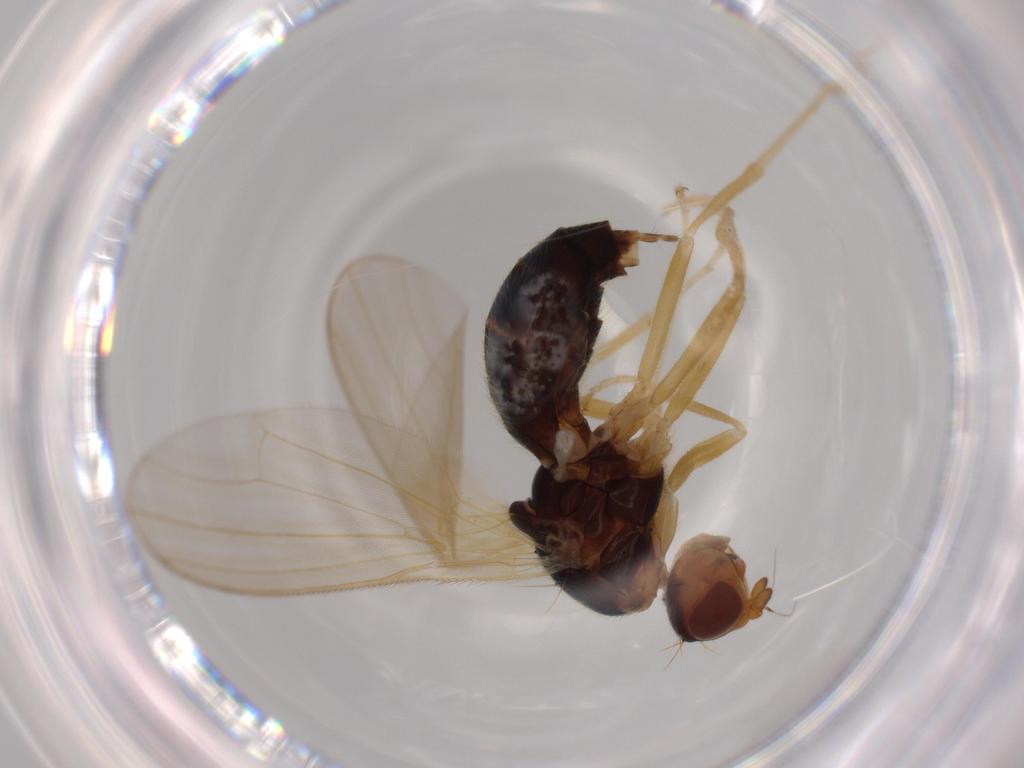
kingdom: Animalia
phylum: Arthropoda
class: Insecta
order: Diptera
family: Psilidae
